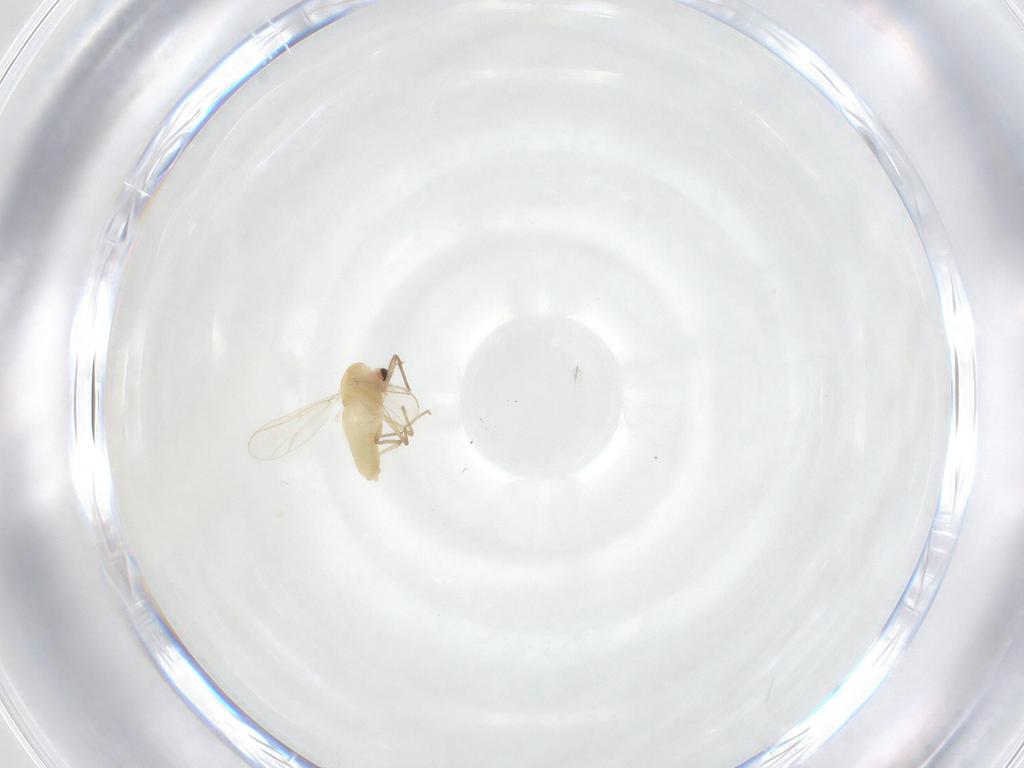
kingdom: Animalia
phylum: Arthropoda
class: Insecta
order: Diptera
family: Chironomidae
